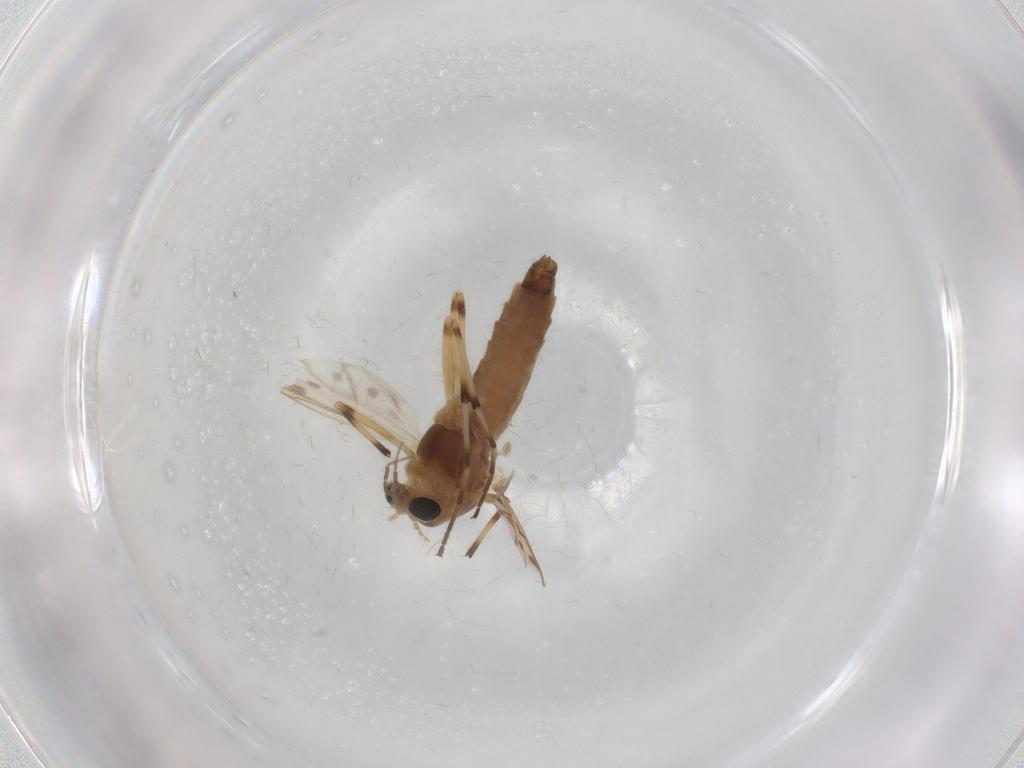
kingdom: Animalia
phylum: Arthropoda
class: Insecta
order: Diptera
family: Chironomidae
